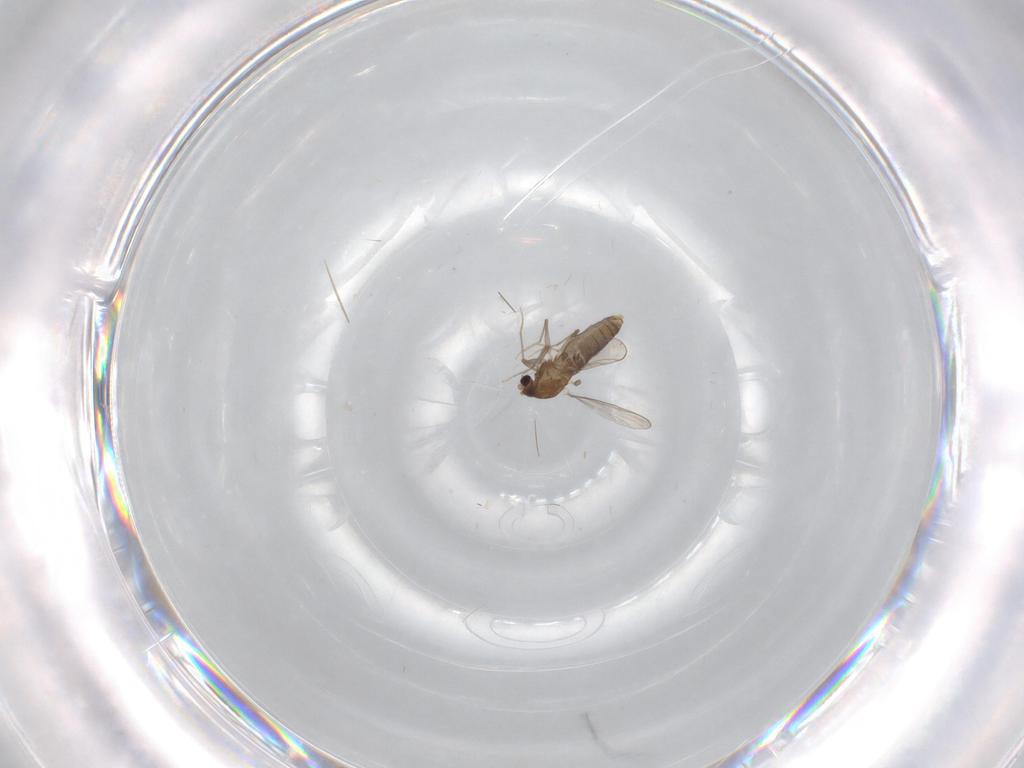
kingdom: Animalia
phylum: Arthropoda
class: Insecta
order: Diptera
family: Chironomidae
